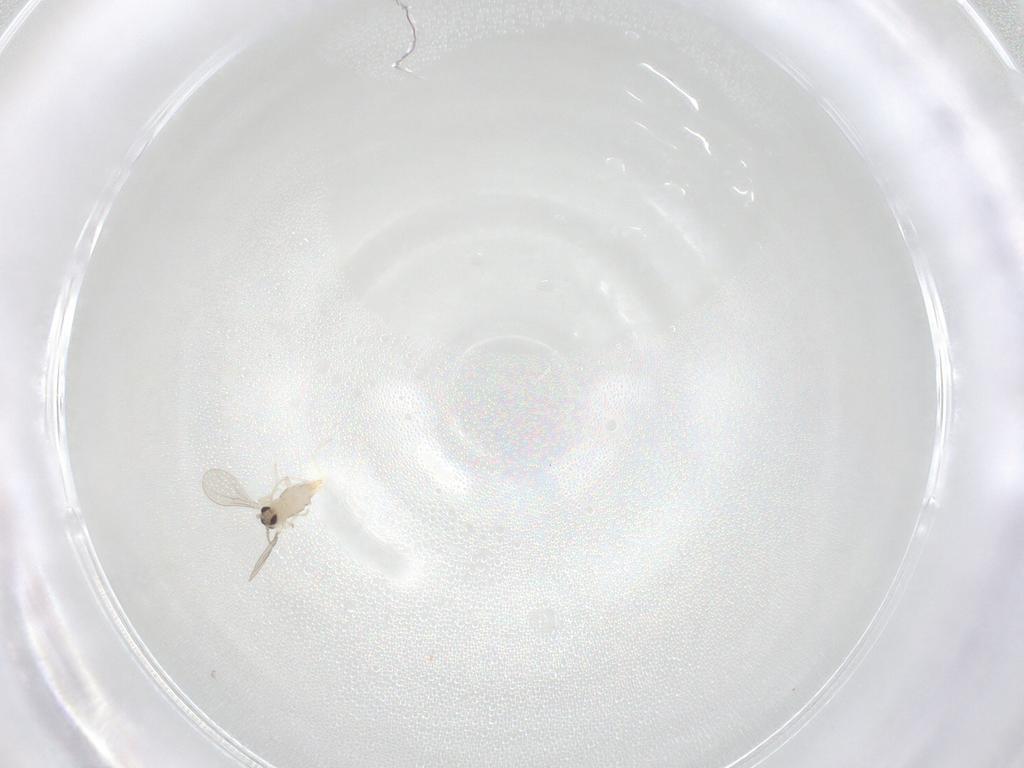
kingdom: Animalia
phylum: Arthropoda
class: Insecta
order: Diptera
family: Cecidomyiidae
